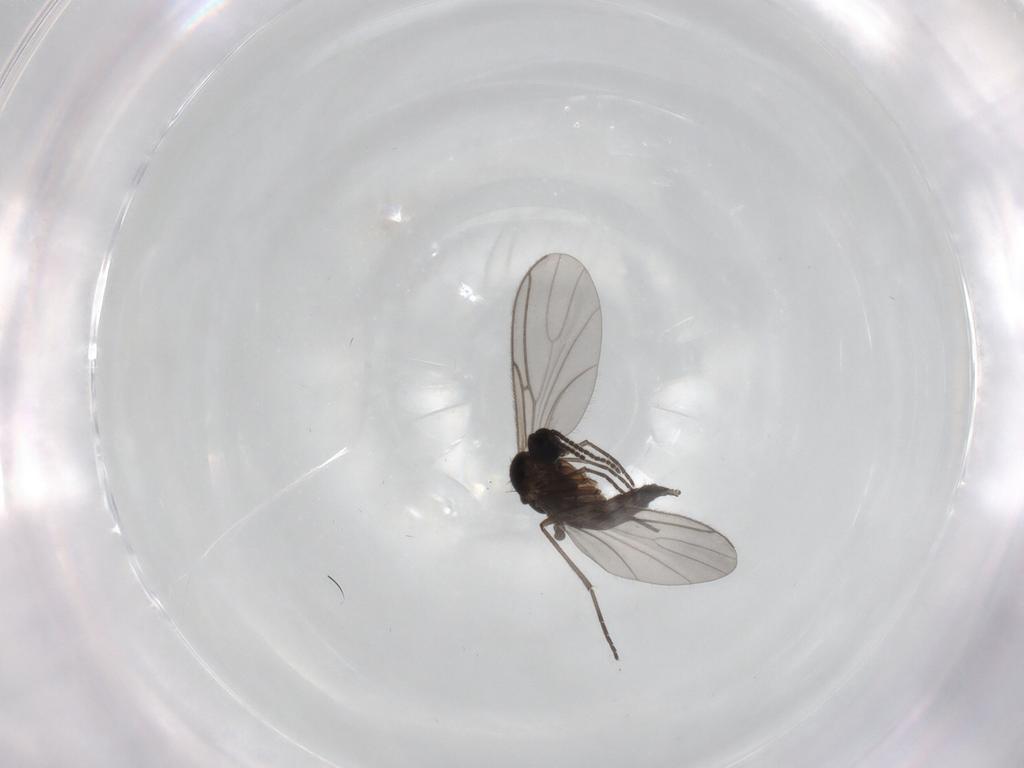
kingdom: Animalia
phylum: Arthropoda
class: Insecta
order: Diptera
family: Sciaridae
